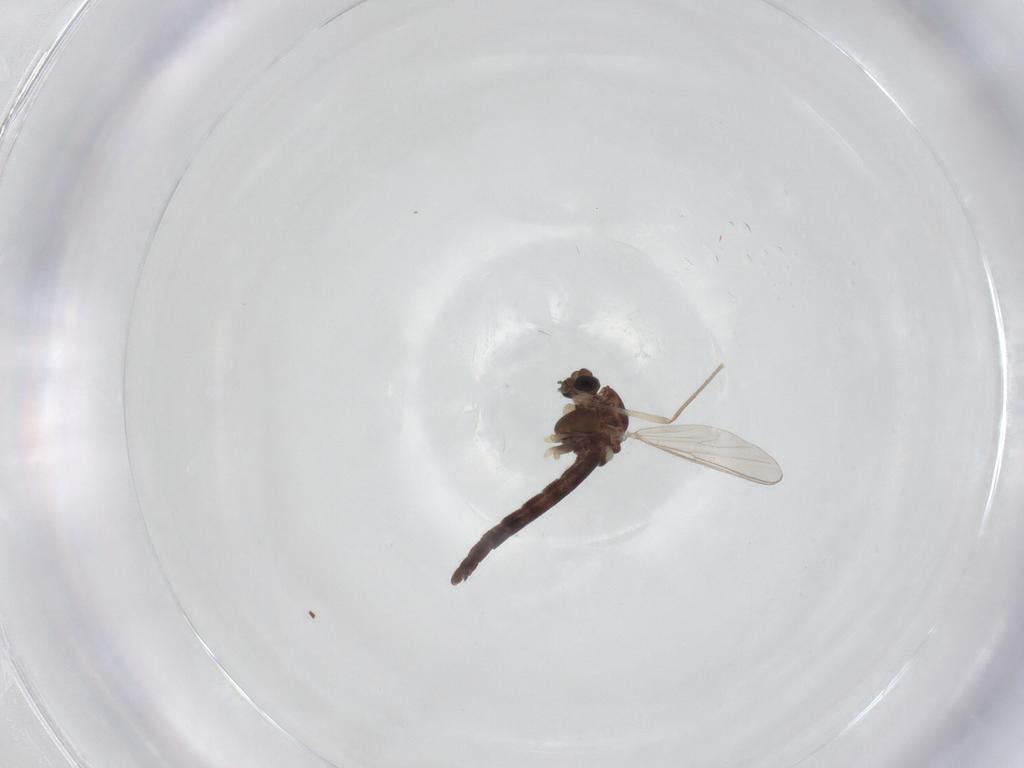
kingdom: Animalia
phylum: Arthropoda
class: Insecta
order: Diptera
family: Chironomidae
